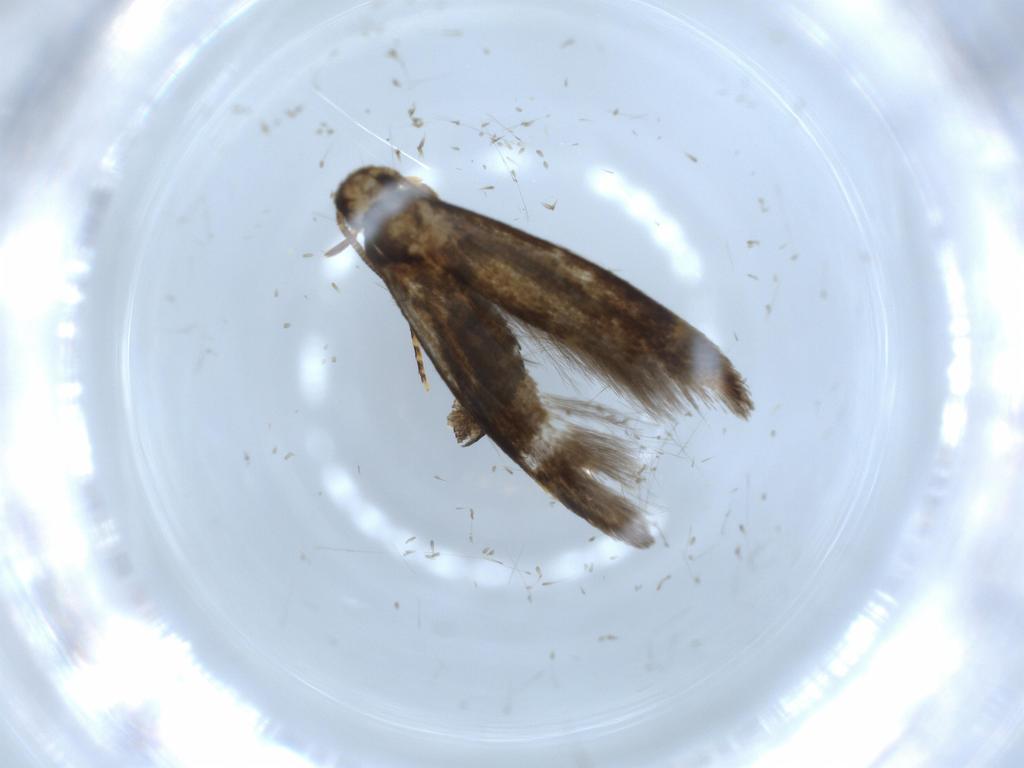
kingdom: Animalia
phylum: Arthropoda
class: Insecta
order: Lepidoptera
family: Tineidae
